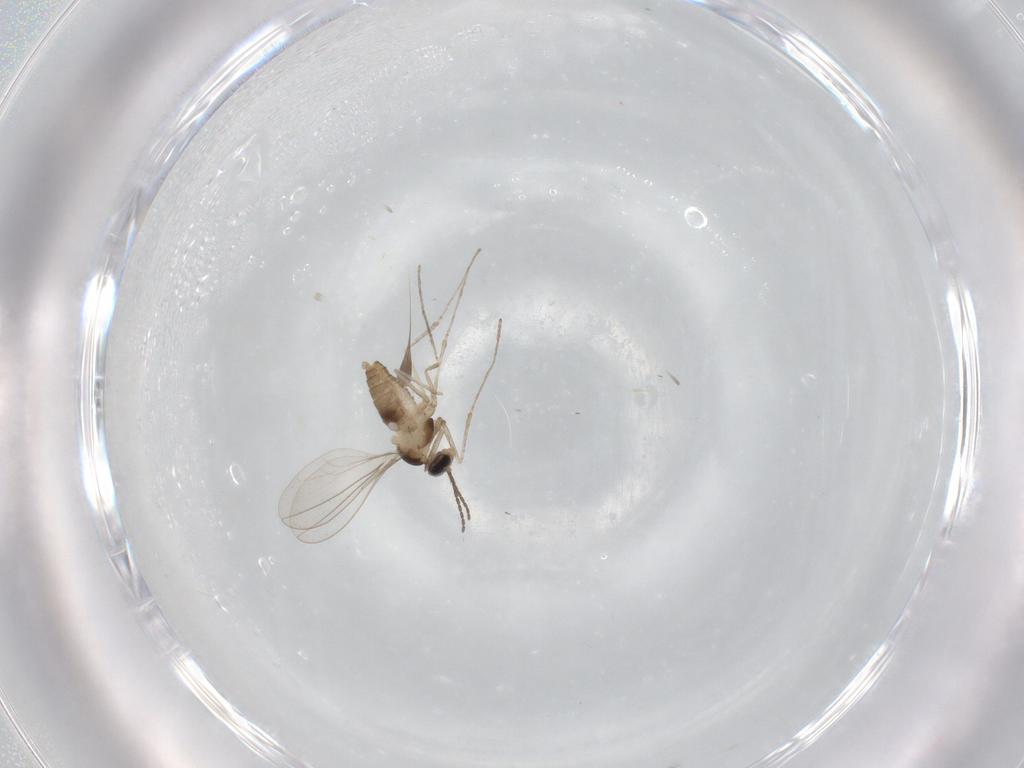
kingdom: Animalia
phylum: Arthropoda
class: Insecta
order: Diptera
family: Cecidomyiidae
